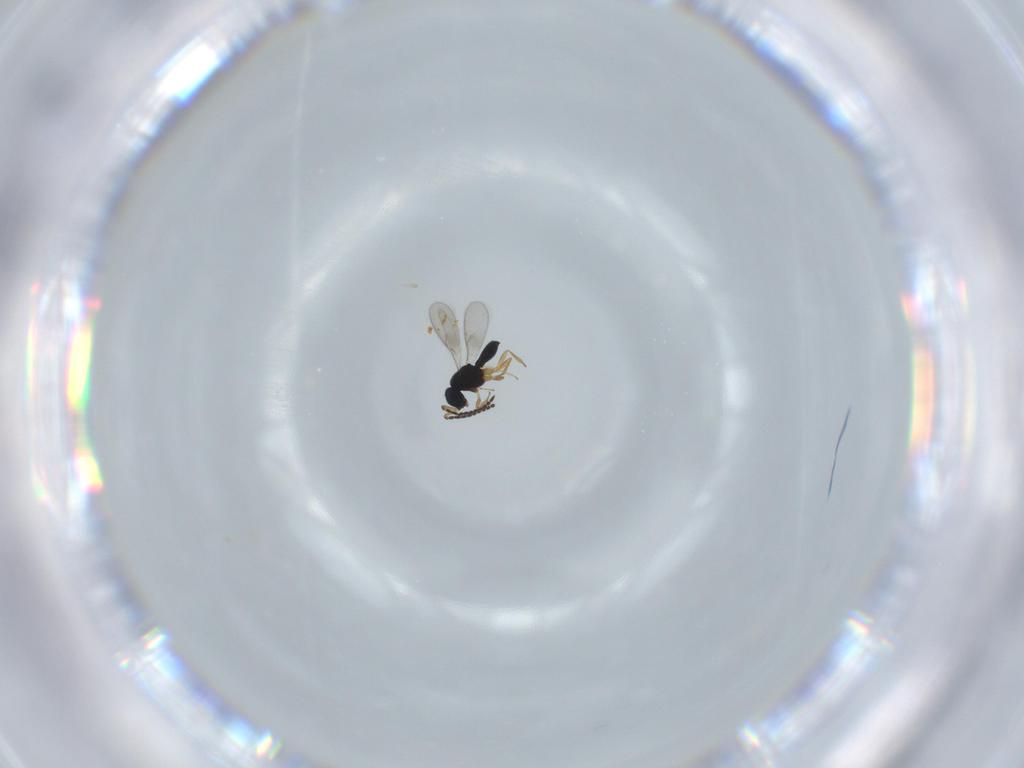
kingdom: Animalia
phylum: Arthropoda
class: Insecta
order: Hymenoptera
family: Scelionidae
